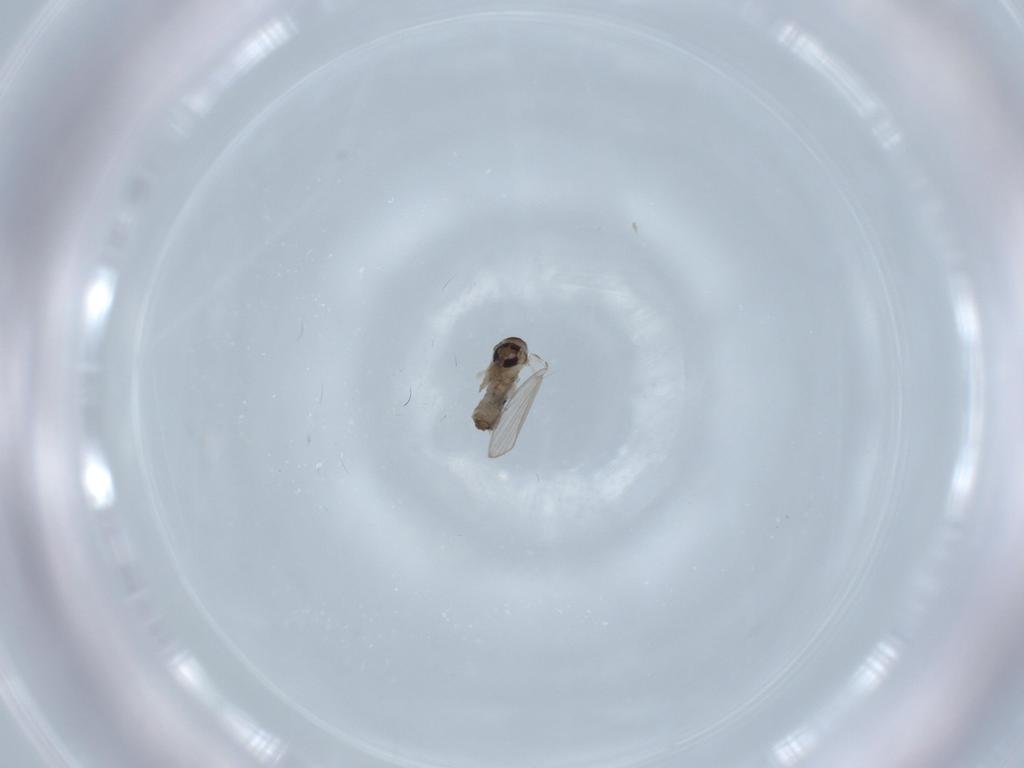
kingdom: Animalia
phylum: Arthropoda
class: Insecta
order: Diptera
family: Psychodidae
